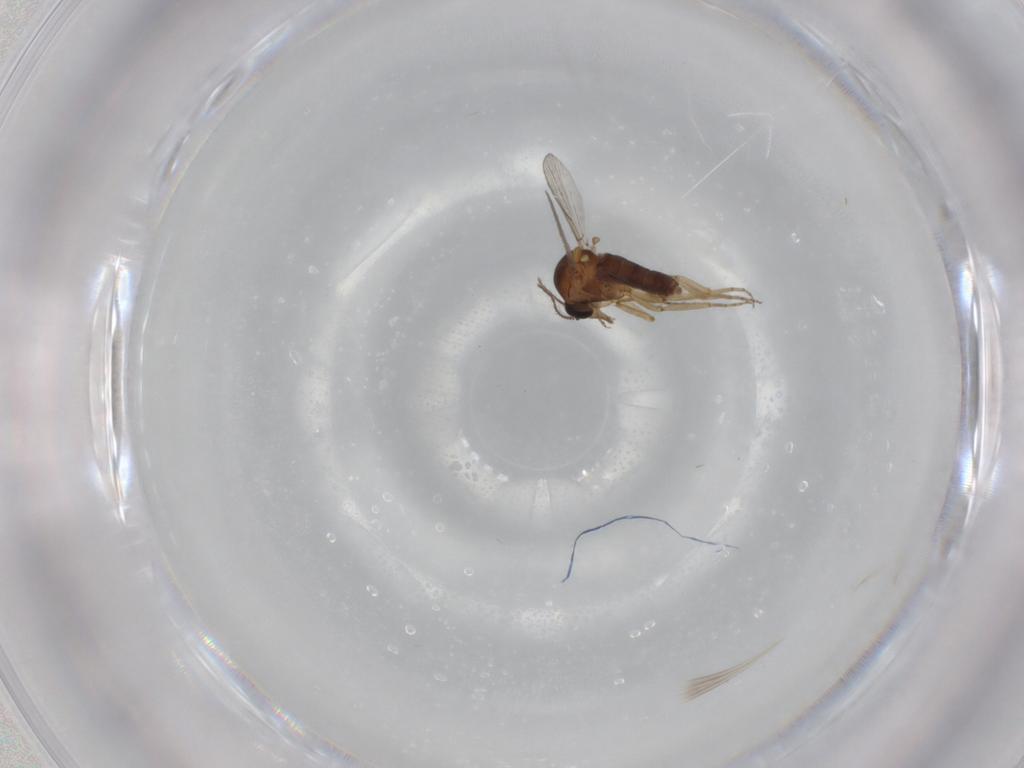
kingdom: Animalia
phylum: Arthropoda
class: Insecta
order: Diptera
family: Ceratopogonidae
